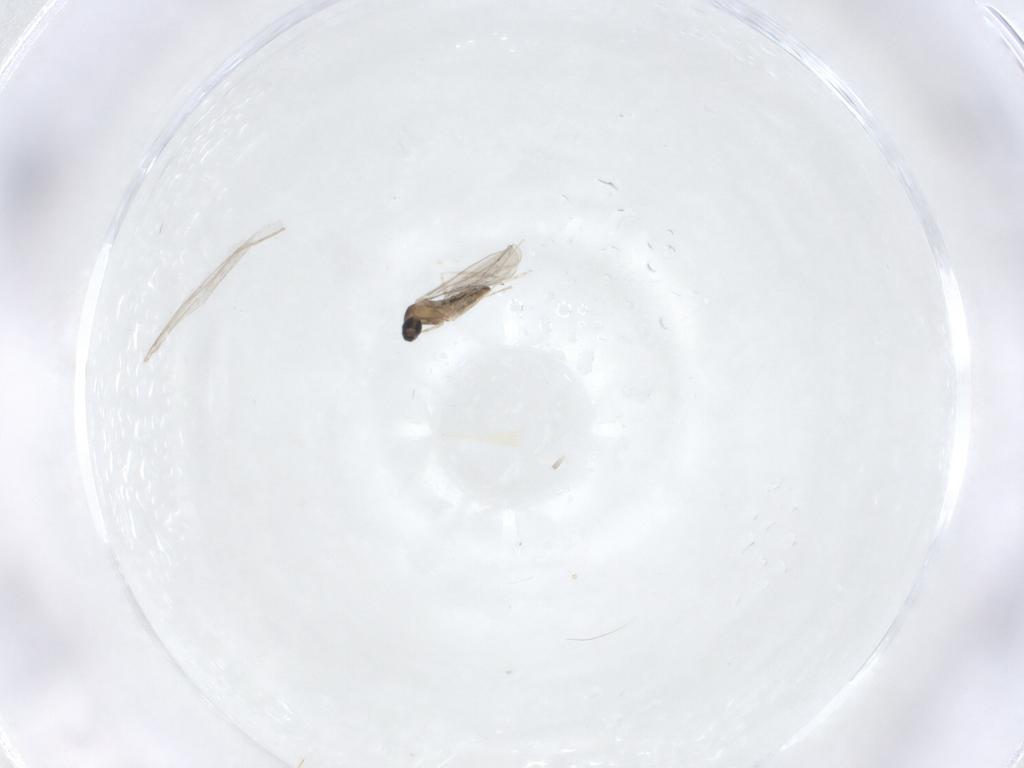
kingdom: Animalia
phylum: Arthropoda
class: Insecta
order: Diptera
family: Cecidomyiidae
